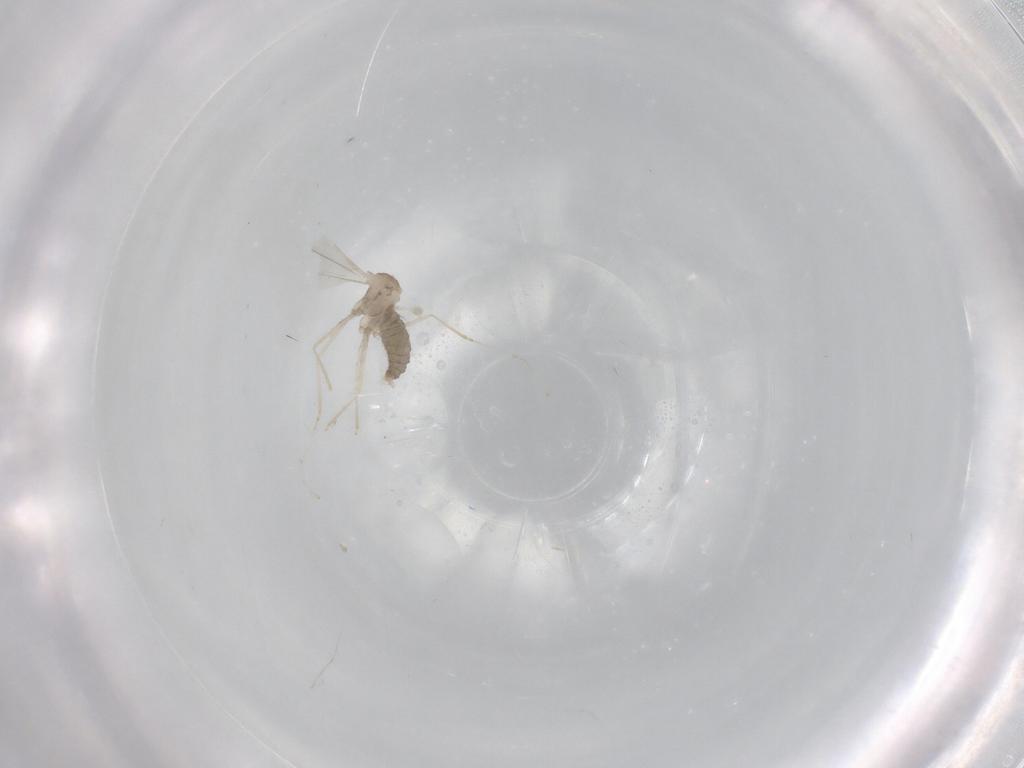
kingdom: Animalia
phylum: Arthropoda
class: Insecta
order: Diptera
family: Cecidomyiidae
